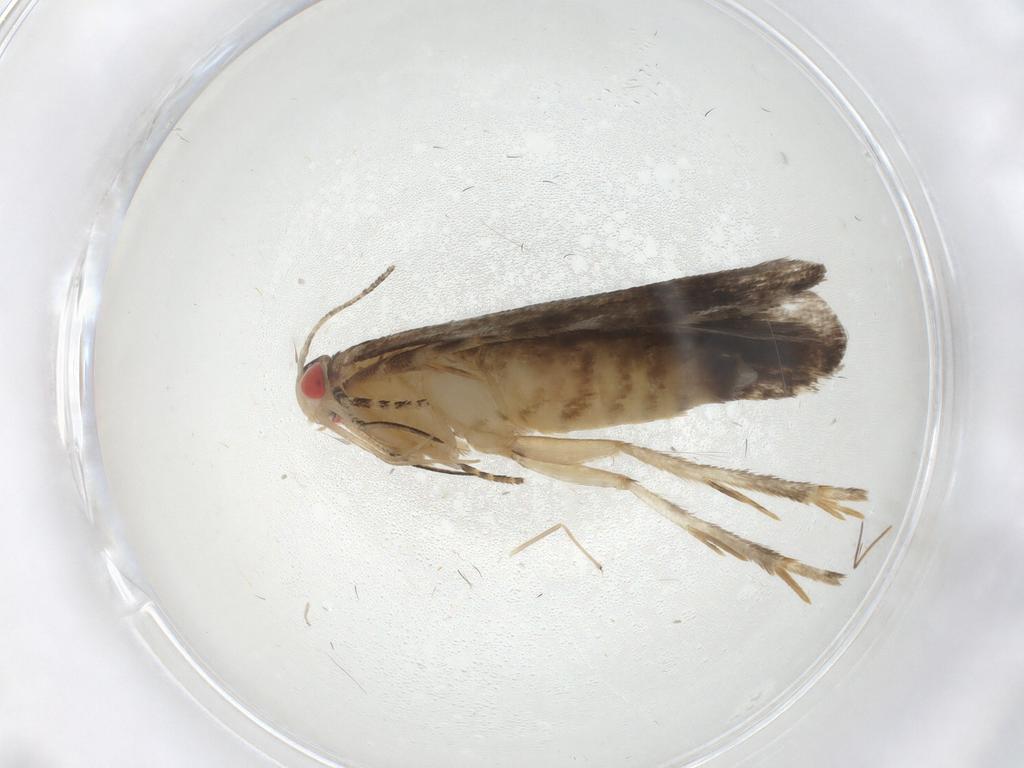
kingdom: Animalia
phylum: Arthropoda
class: Insecta
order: Lepidoptera
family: Crambidae
